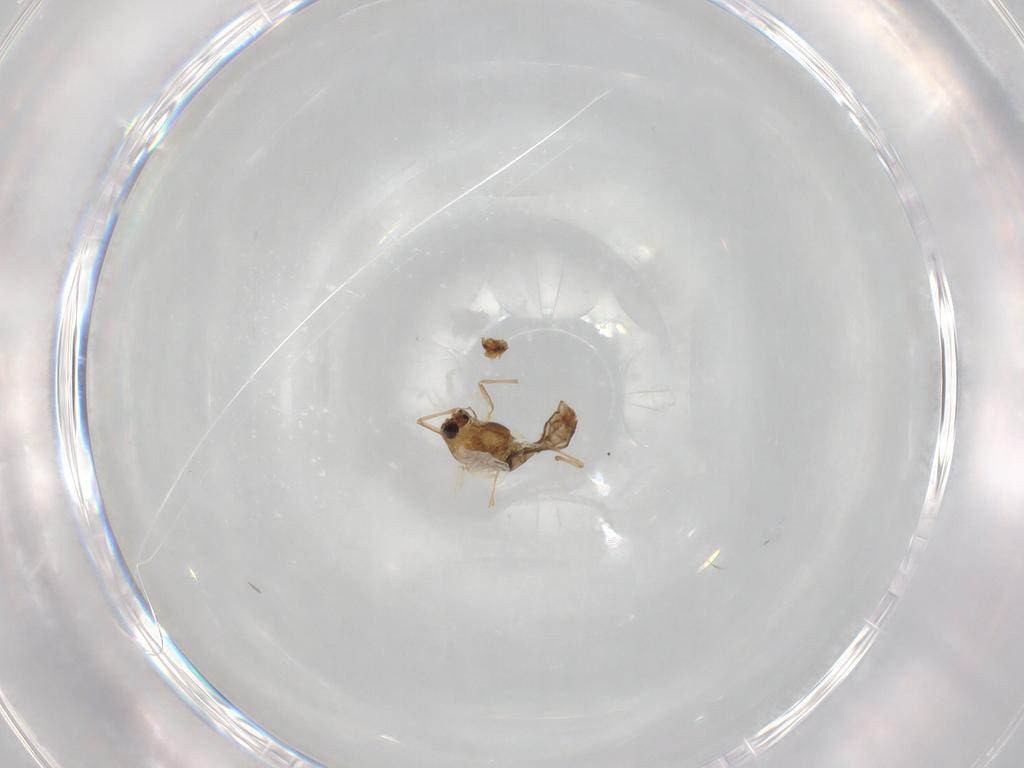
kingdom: Animalia
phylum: Arthropoda
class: Insecta
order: Diptera
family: Chironomidae
